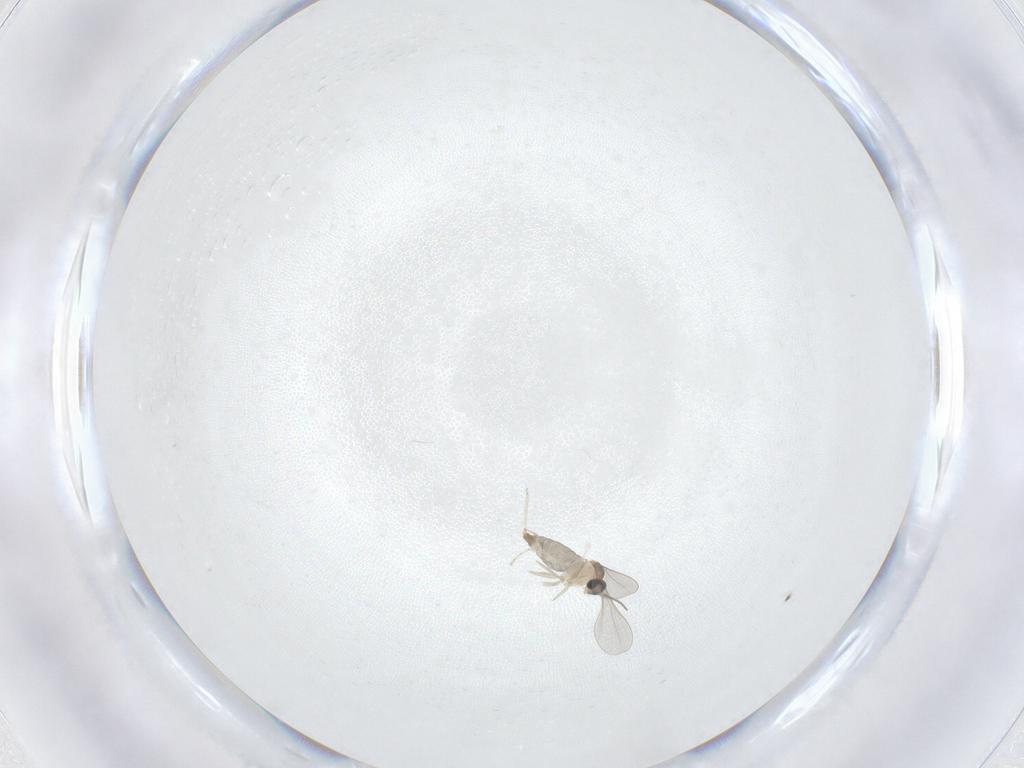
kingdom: Animalia
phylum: Arthropoda
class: Insecta
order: Diptera
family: Cecidomyiidae
